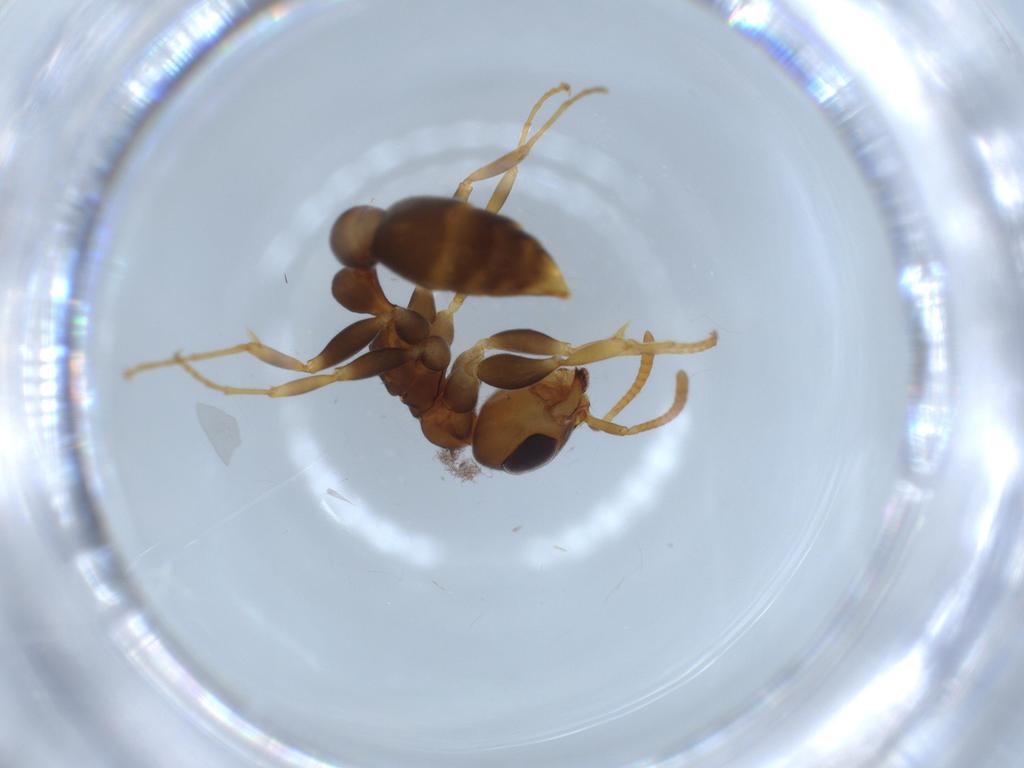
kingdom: Animalia
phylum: Arthropoda
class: Insecta
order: Hymenoptera
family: Formicidae
